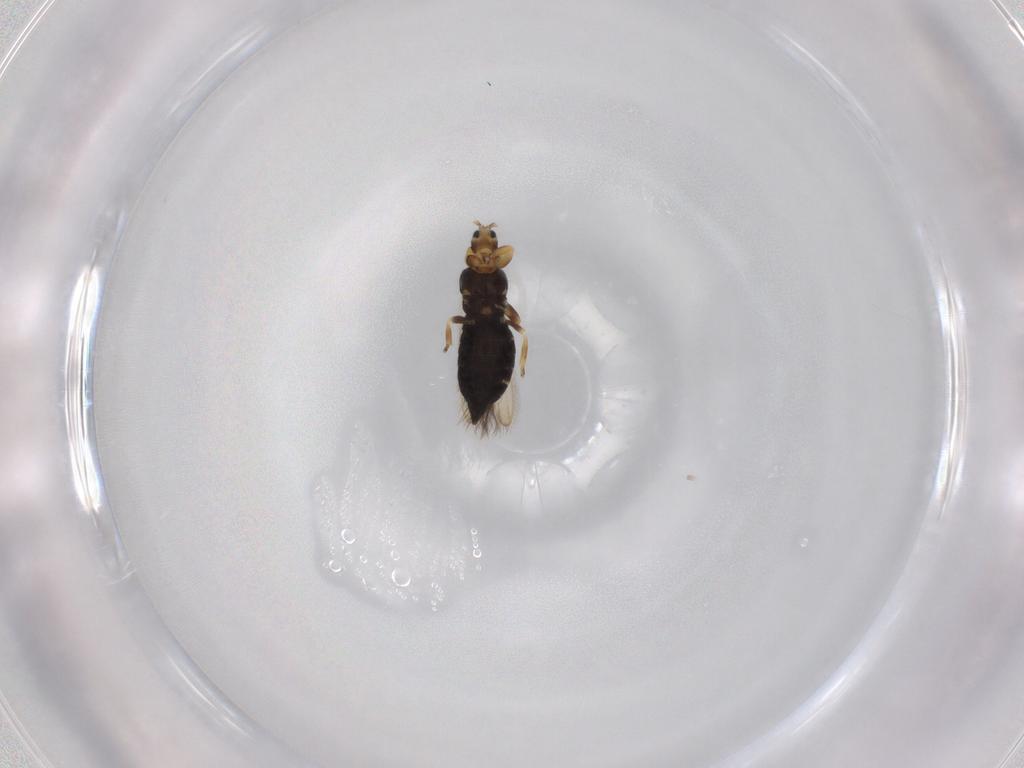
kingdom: Animalia
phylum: Arthropoda
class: Insecta
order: Thysanoptera
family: Melanthripidae
